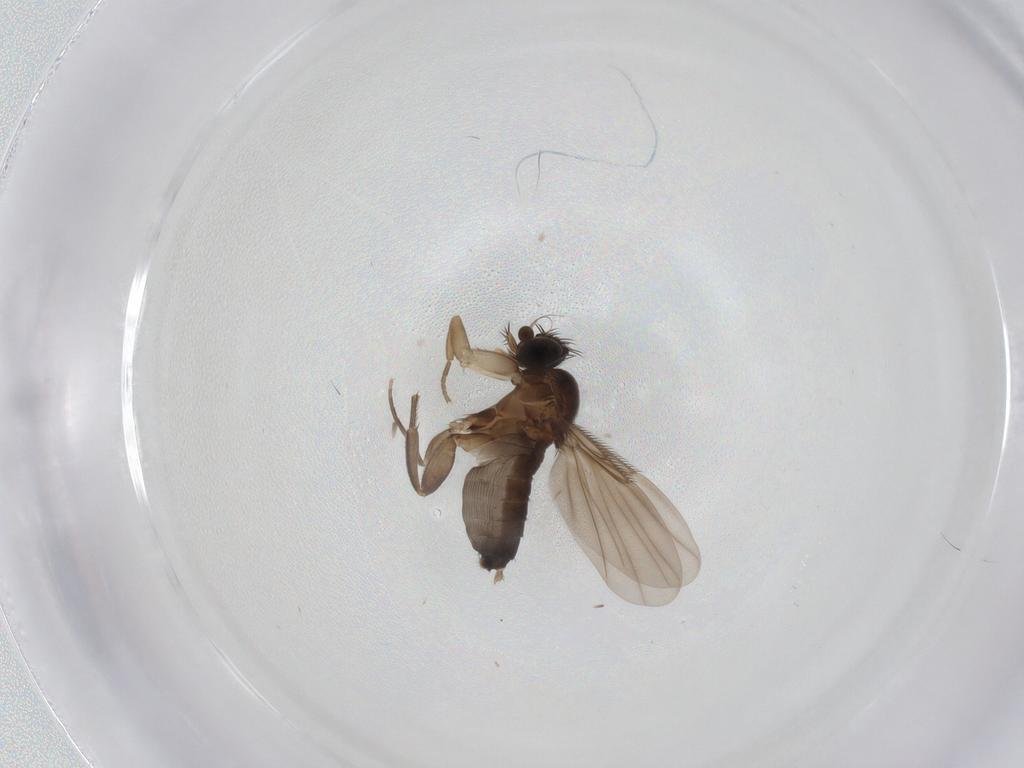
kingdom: Animalia
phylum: Arthropoda
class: Insecta
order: Diptera
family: Phoridae
